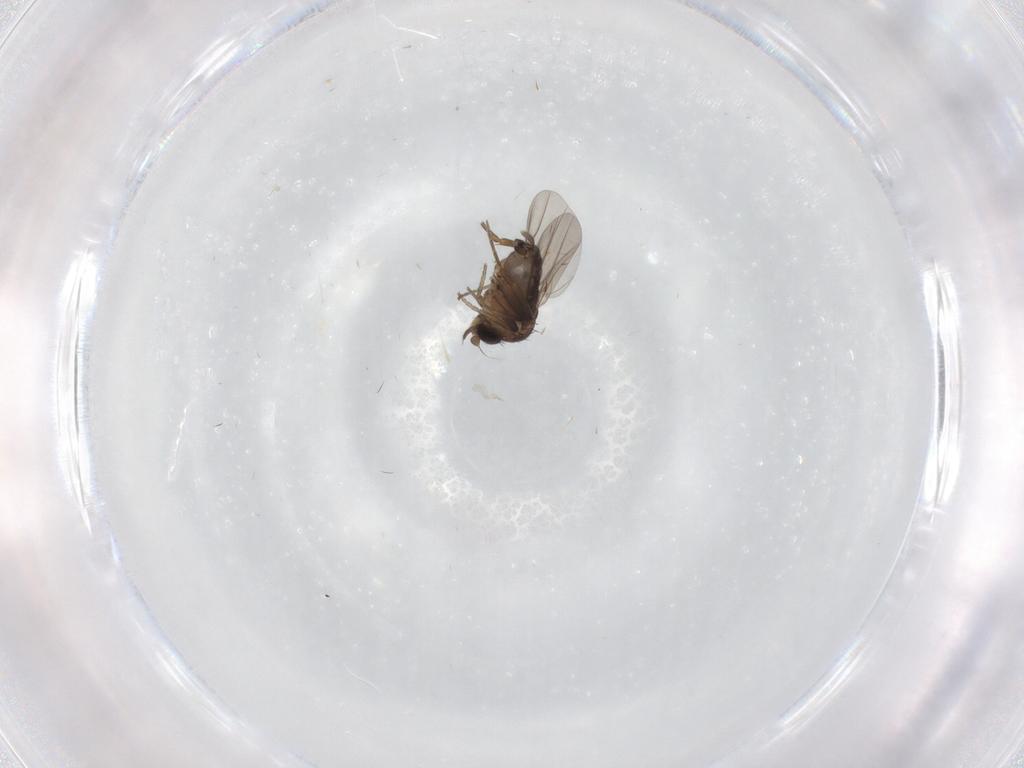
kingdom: Animalia
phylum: Arthropoda
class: Insecta
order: Diptera
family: Phoridae
